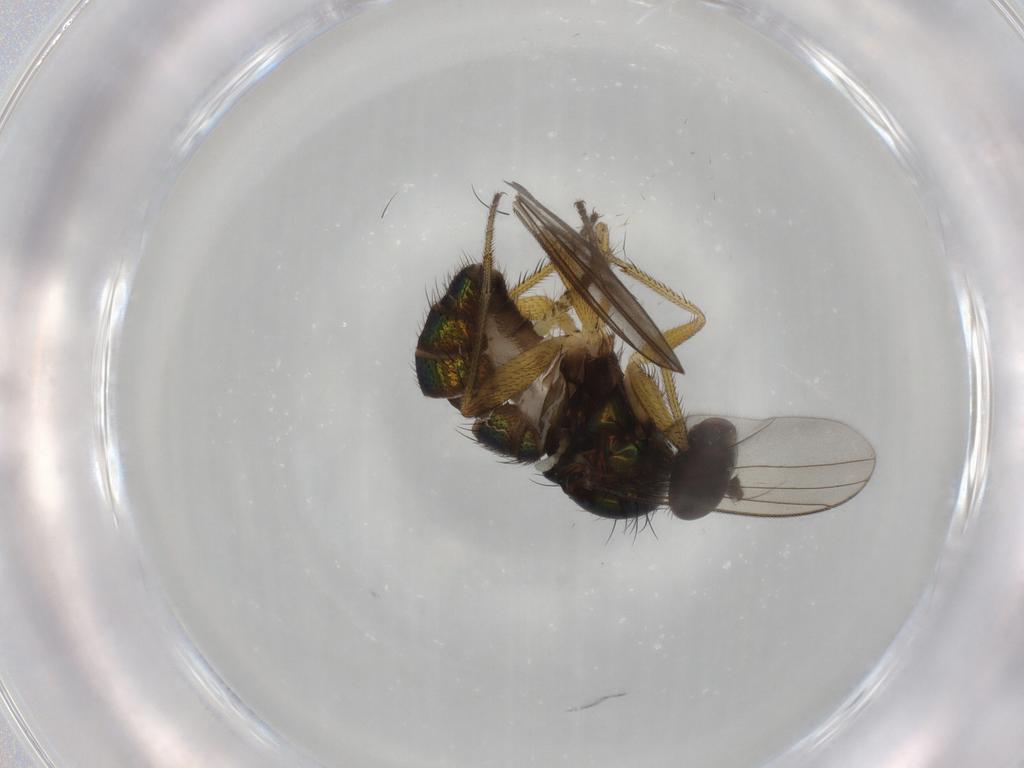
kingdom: Animalia
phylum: Arthropoda
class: Insecta
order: Diptera
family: Dolichopodidae
